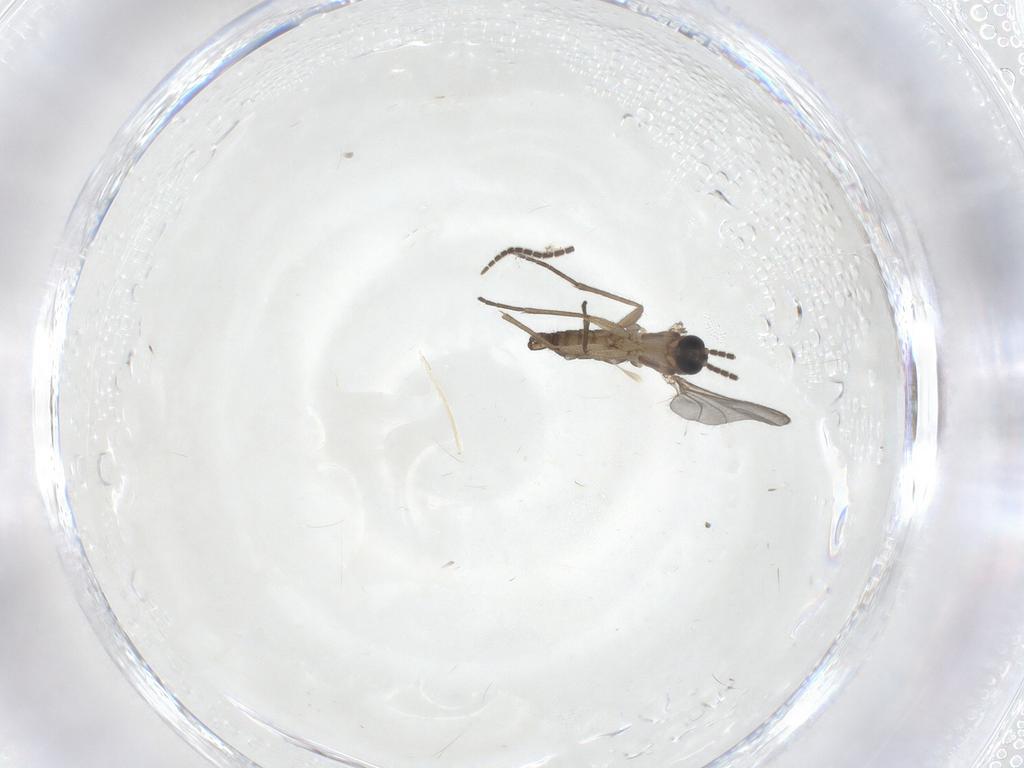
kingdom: Animalia
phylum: Arthropoda
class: Insecta
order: Diptera
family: Sciaridae
